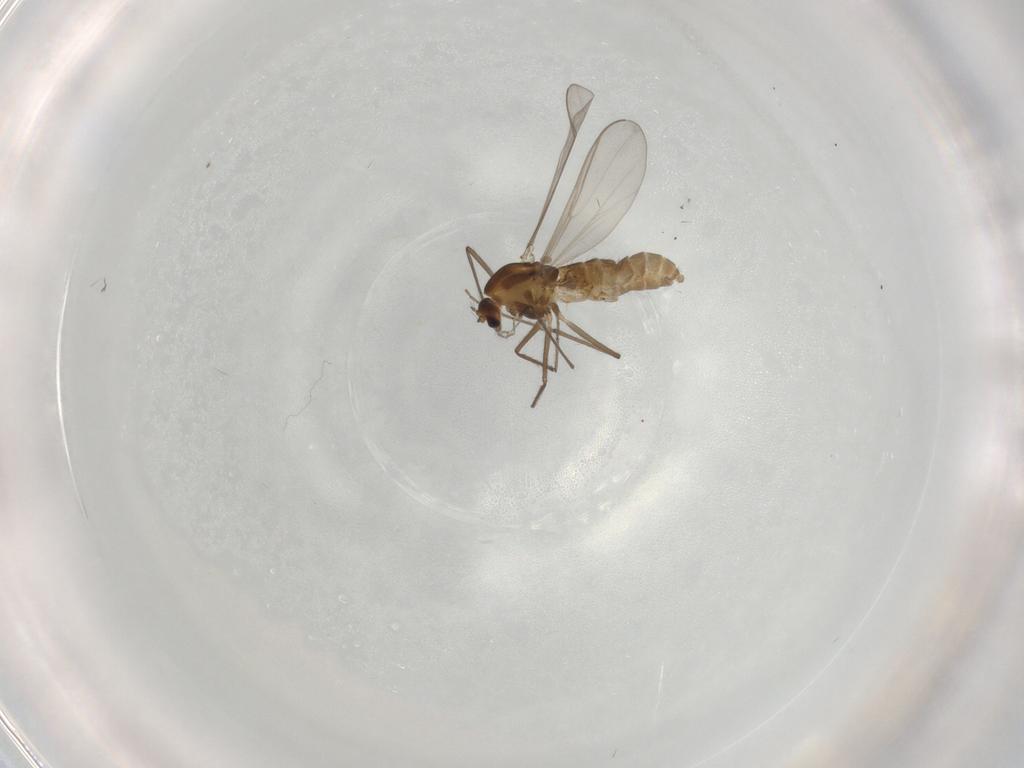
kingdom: Animalia
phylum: Arthropoda
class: Insecta
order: Diptera
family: Chironomidae
